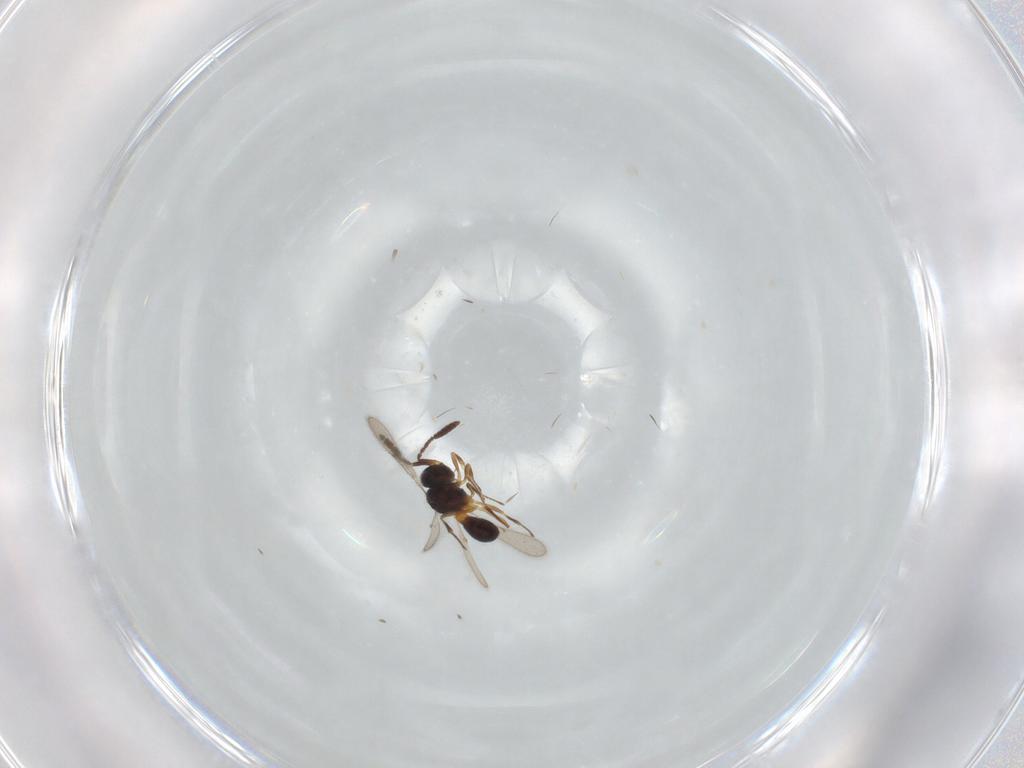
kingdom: Animalia
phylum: Arthropoda
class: Insecta
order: Hymenoptera
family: Scelionidae
